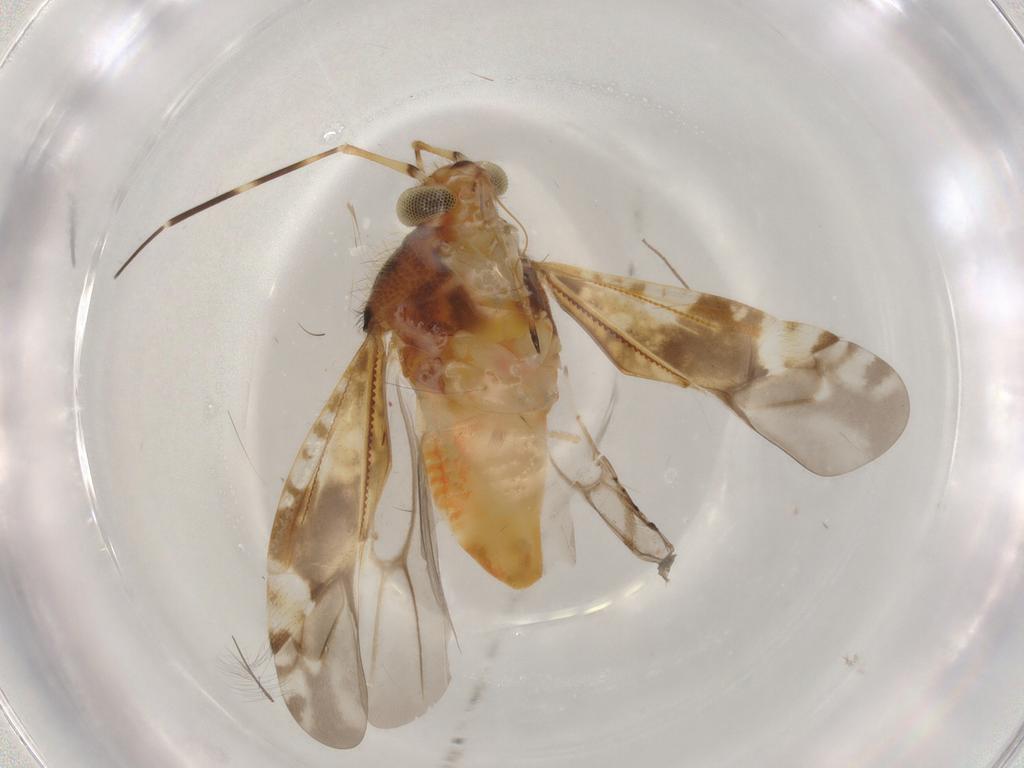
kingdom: Animalia
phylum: Arthropoda
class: Insecta
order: Hemiptera
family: Miridae
